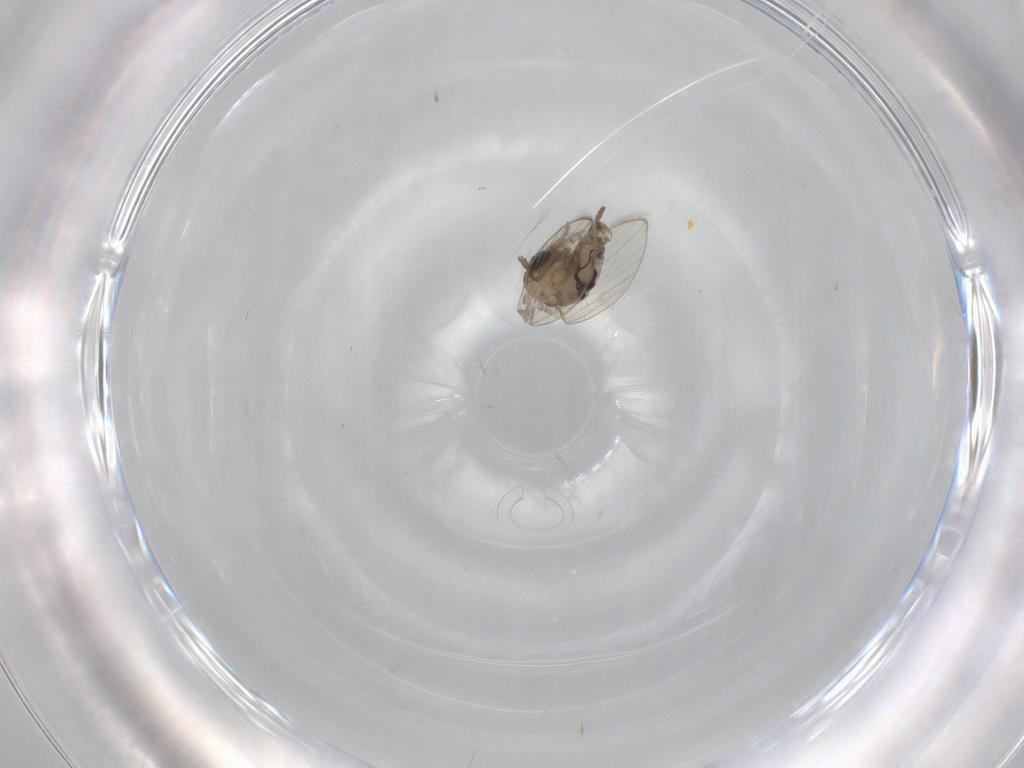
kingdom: Animalia
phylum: Arthropoda
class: Insecta
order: Diptera
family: Psychodidae
